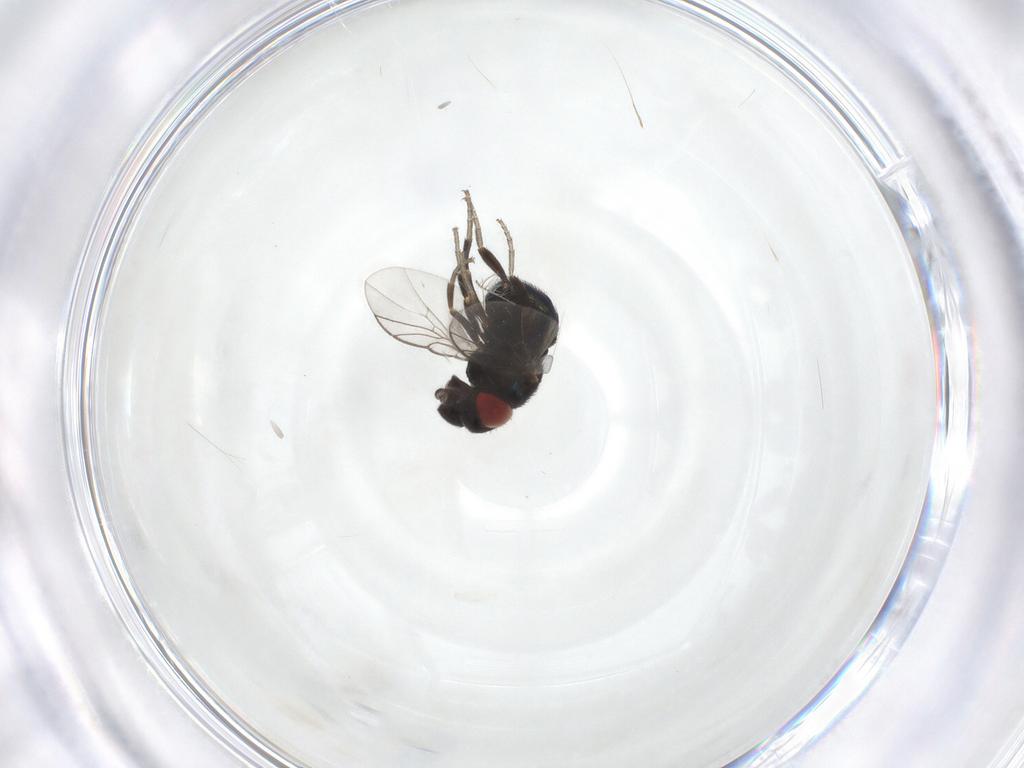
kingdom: Animalia
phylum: Arthropoda
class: Insecta
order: Diptera
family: Cryptochetidae
